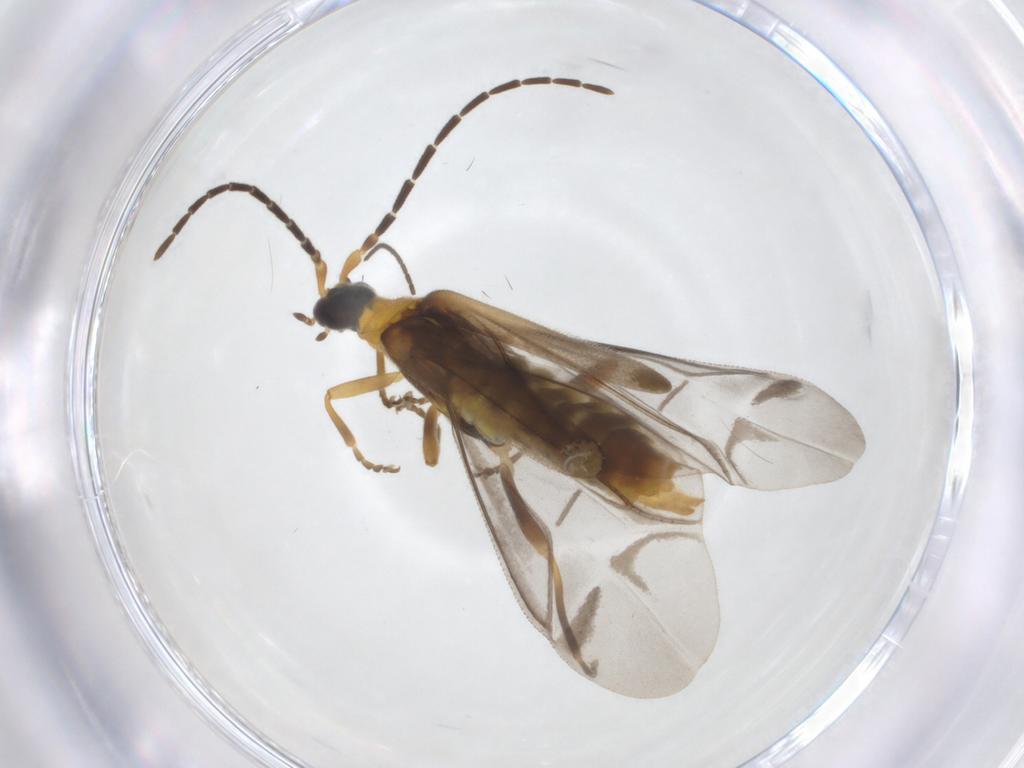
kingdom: Animalia
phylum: Arthropoda
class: Insecta
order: Coleoptera
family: Cantharidae
